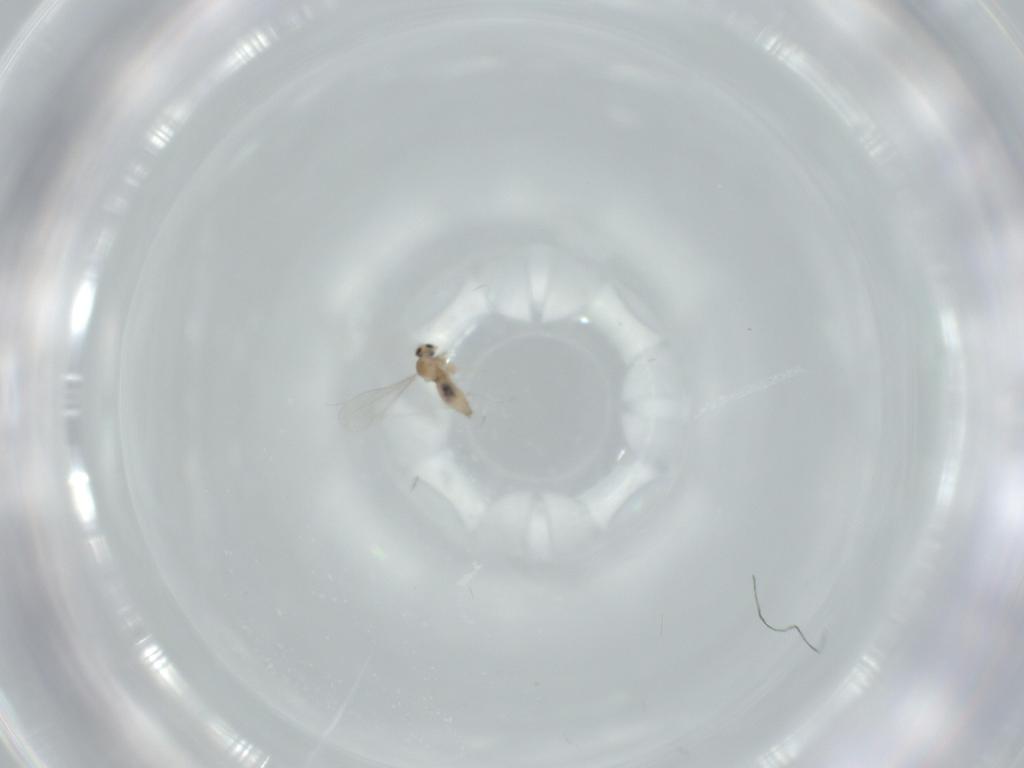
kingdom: Animalia
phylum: Arthropoda
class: Insecta
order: Diptera
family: Cecidomyiidae
